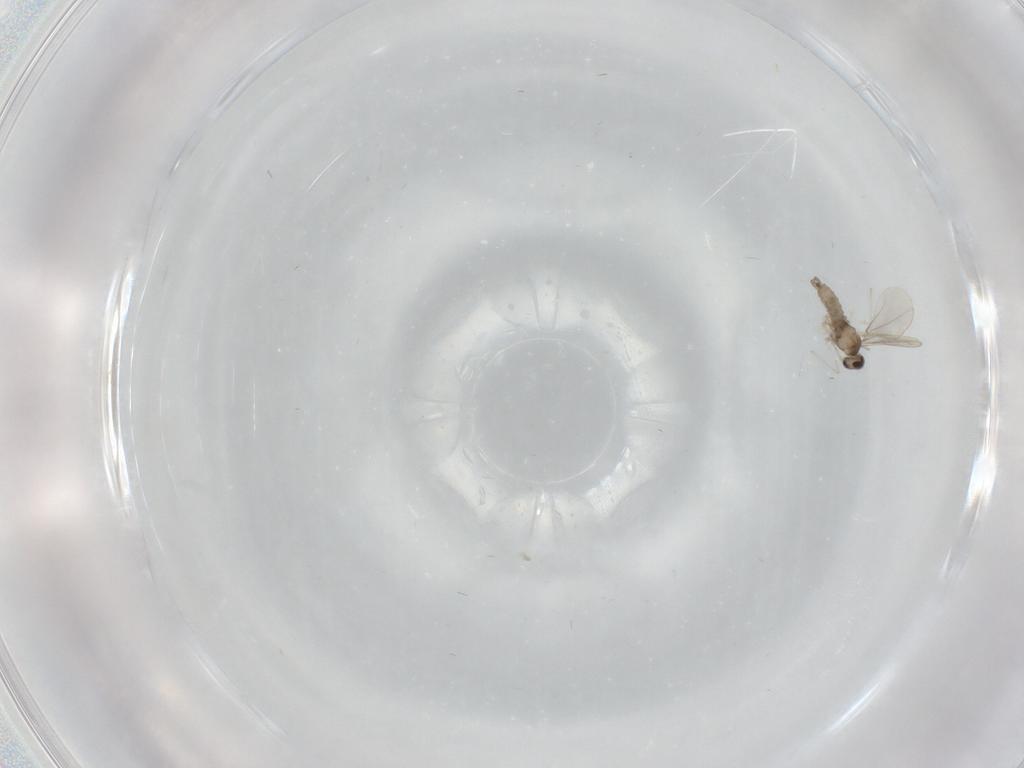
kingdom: Animalia
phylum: Arthropoda
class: Insecta
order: Diptera
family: Cecidomyiidae
